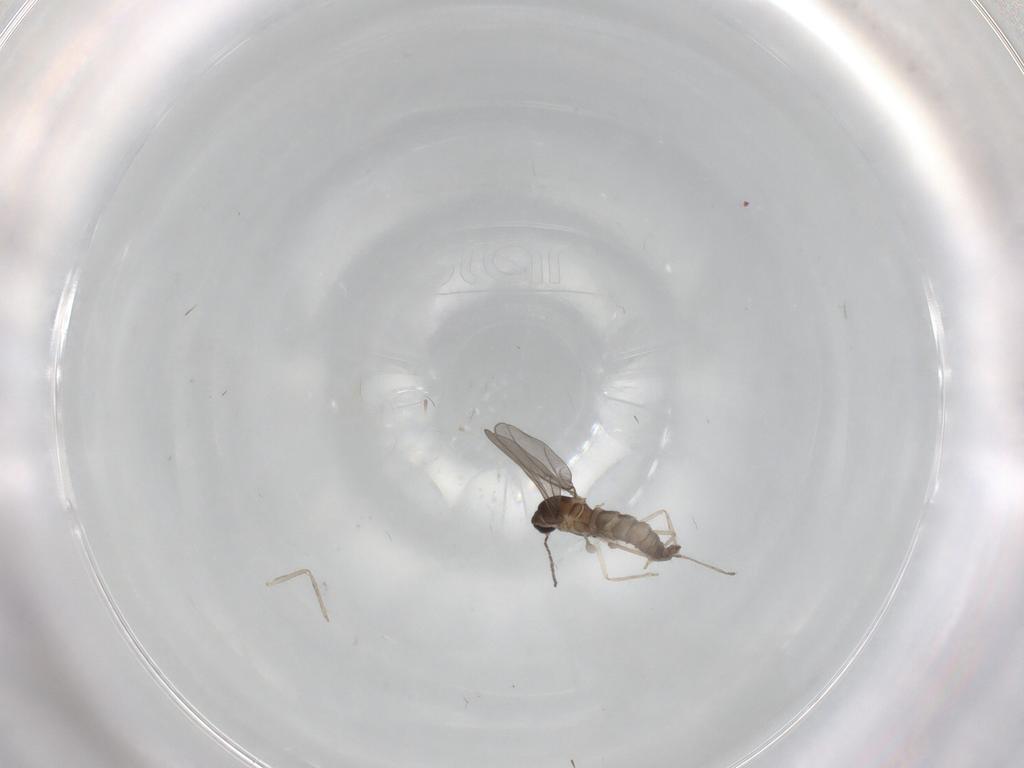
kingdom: Animalia
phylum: Arthropoda
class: Insecta
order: Diptera
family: Cecidomyiidae
